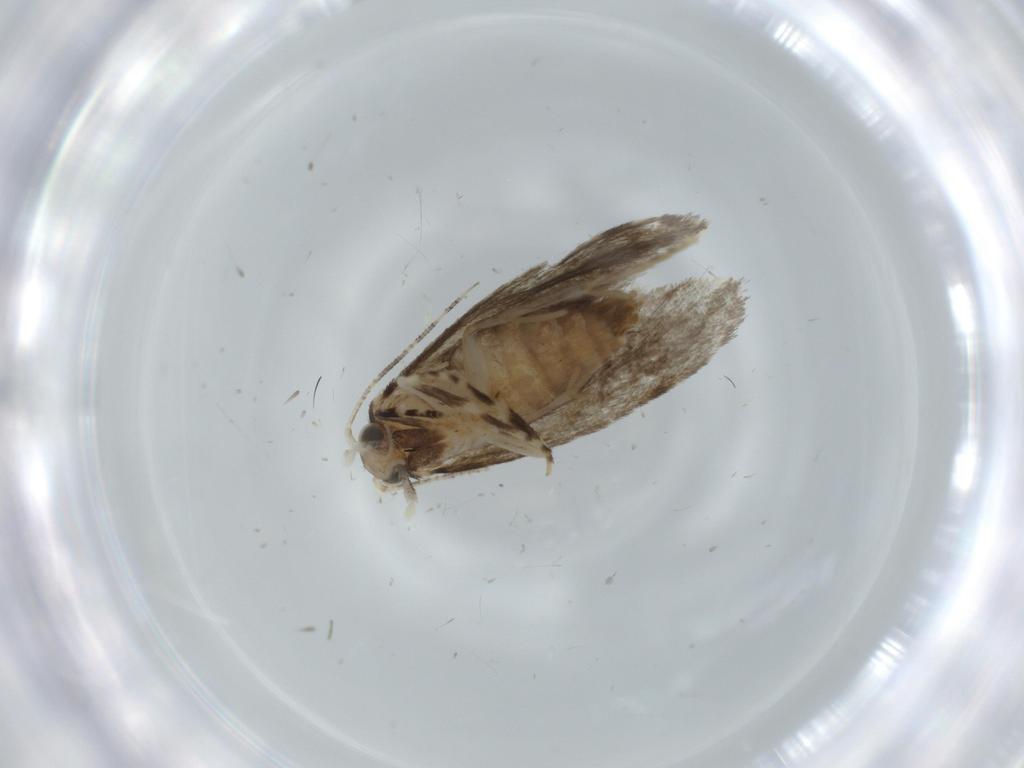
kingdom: Animalia
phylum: Arthropoda
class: Insecta
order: Lepidoptera
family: Tineidae
